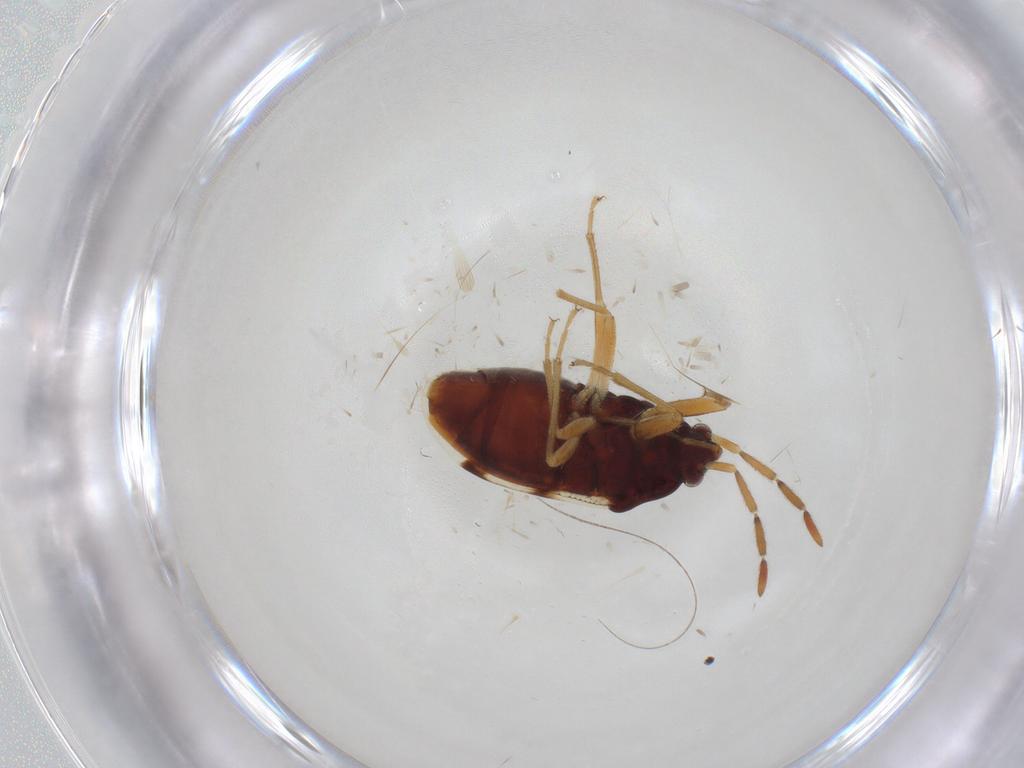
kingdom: Animalia
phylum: Arthropoda
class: Insecta
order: Hemiptera
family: Rhyparochromidae
